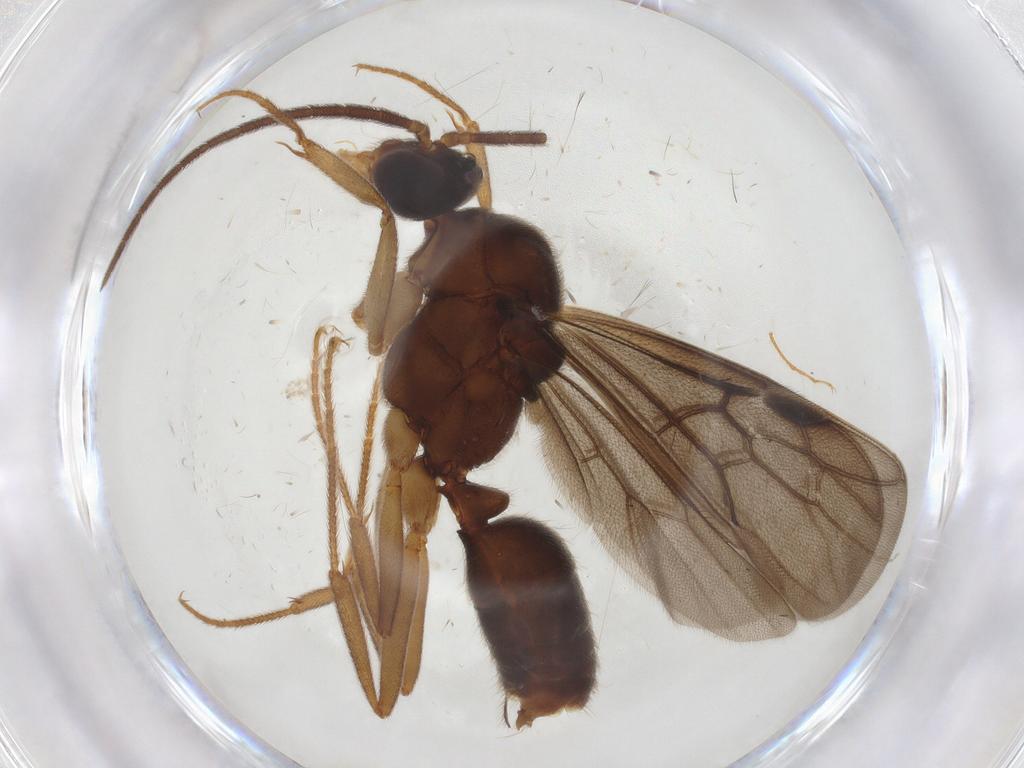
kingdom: Animalia
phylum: Arthropoda
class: Insecta
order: Hymenoptera
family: Formicidae
